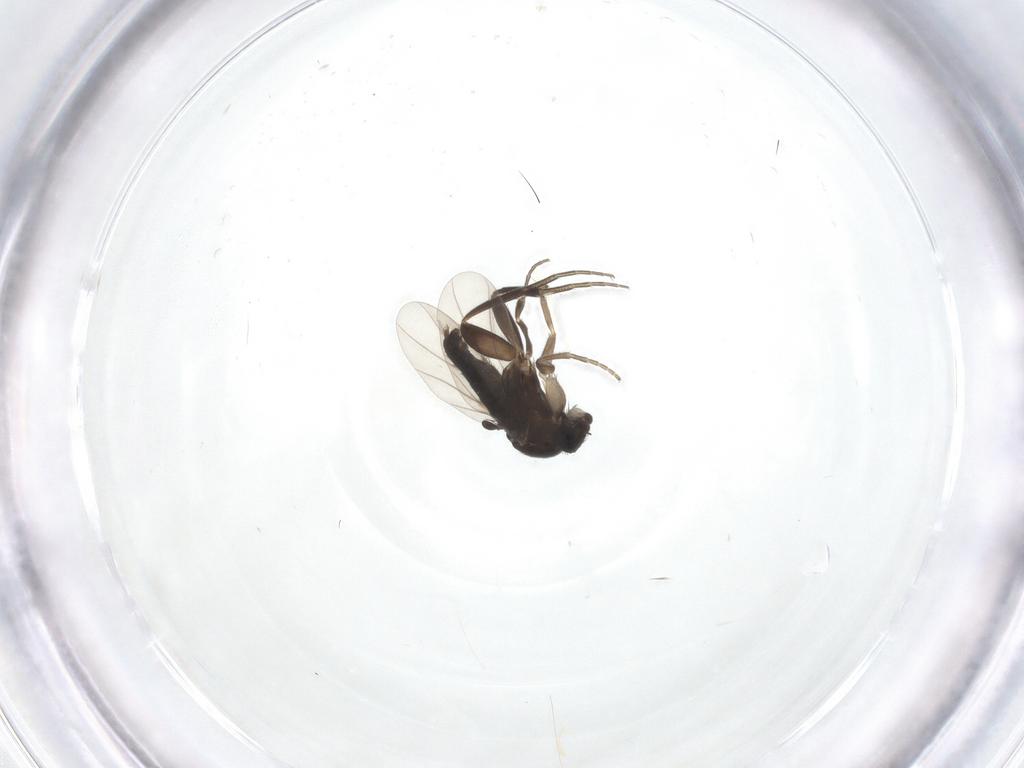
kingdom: Animalia
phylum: Arthropoda
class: Insecta
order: Diptera
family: Phoridae
